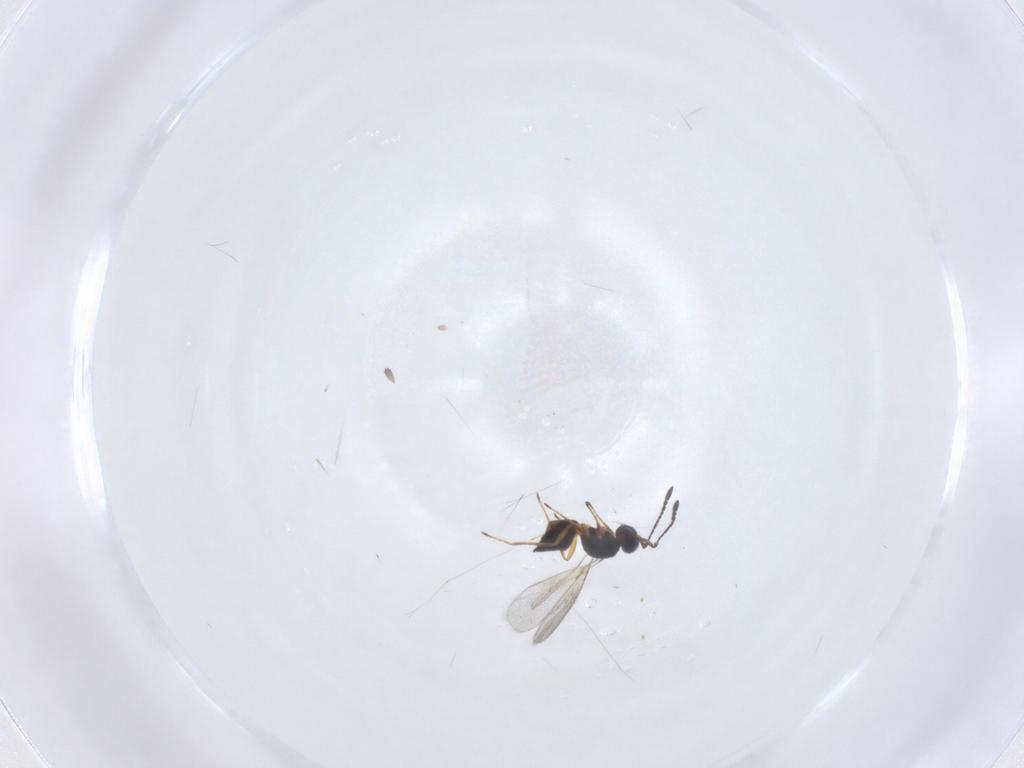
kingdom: Animalia
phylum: Arthropoda
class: Insecta
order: Hymenoptera
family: Mymaridae
